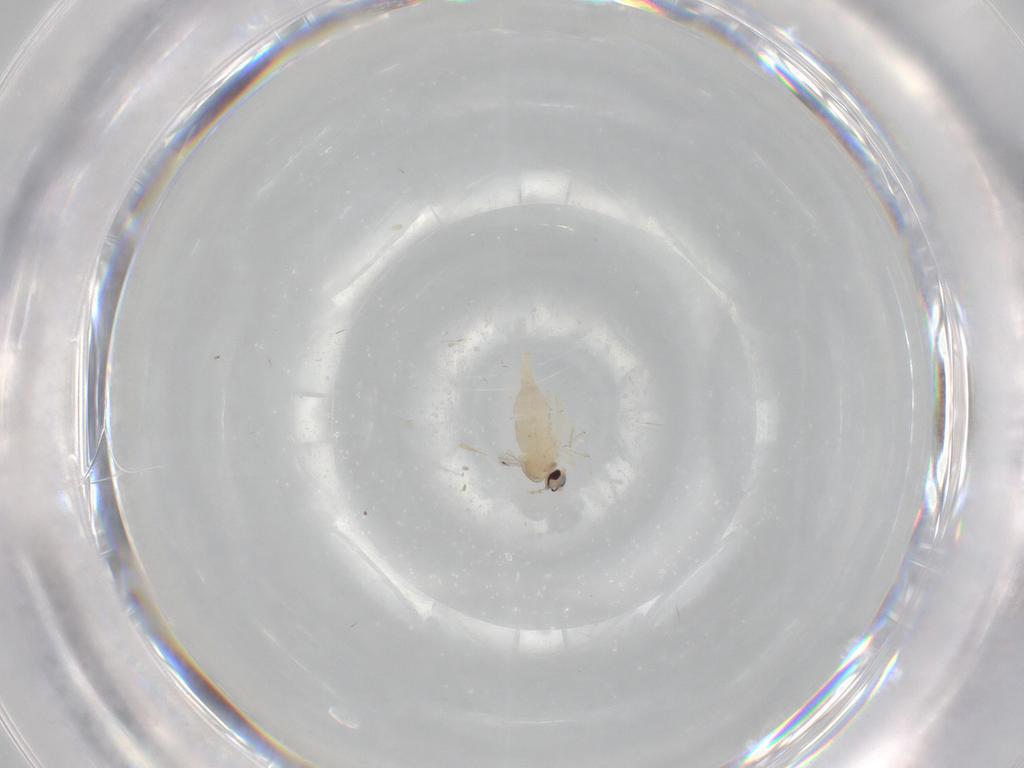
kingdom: Animalia
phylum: Arthropoda
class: Insecta
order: Diptera
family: Cecidomyiidae
